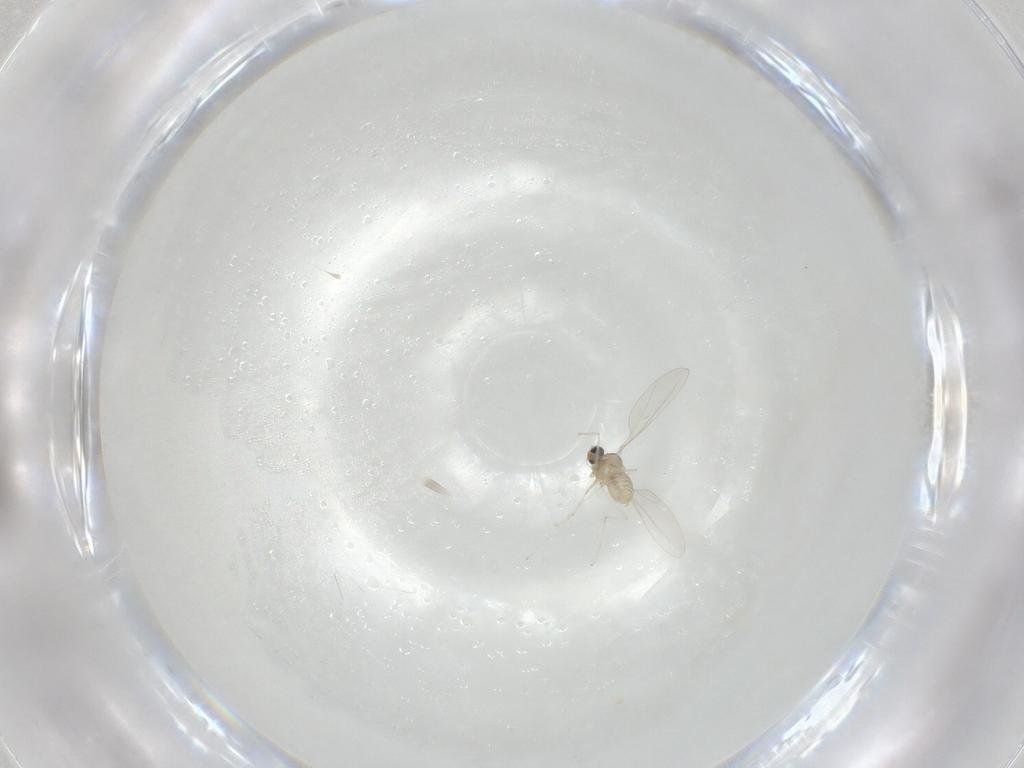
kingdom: Animalia
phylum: Arthropoda
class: Insecta
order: Diptera
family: Cecidomyiidae
